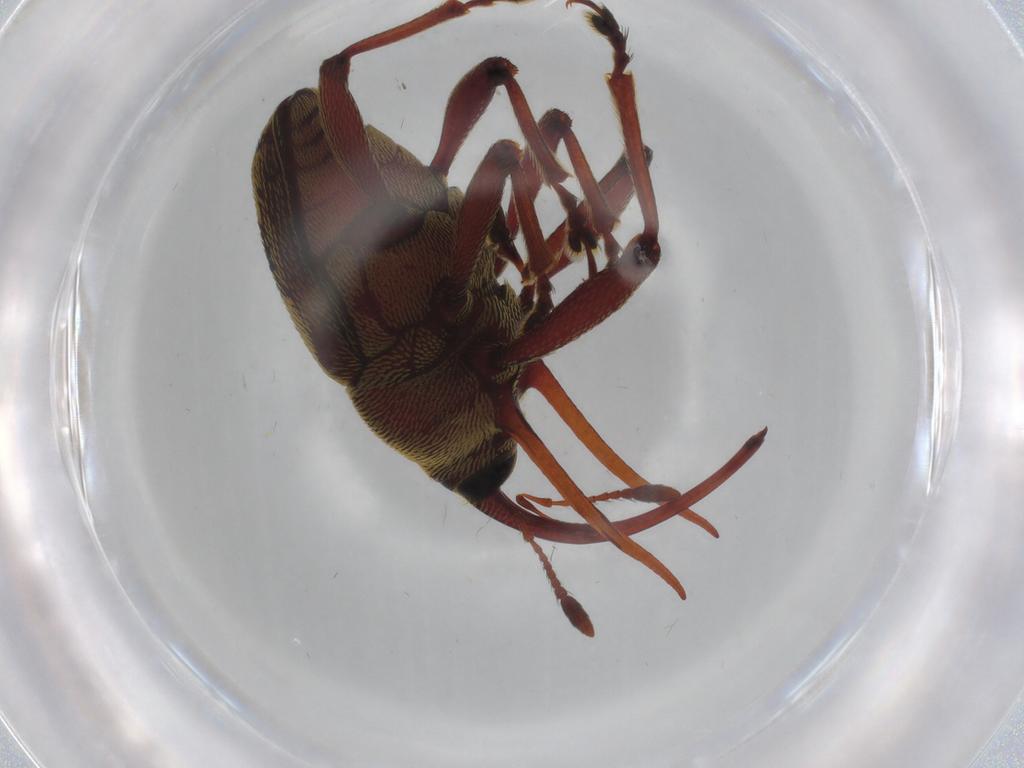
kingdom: Animalia
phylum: Arthropoda
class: Insecta
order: Coleoptera
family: Curculionidae
